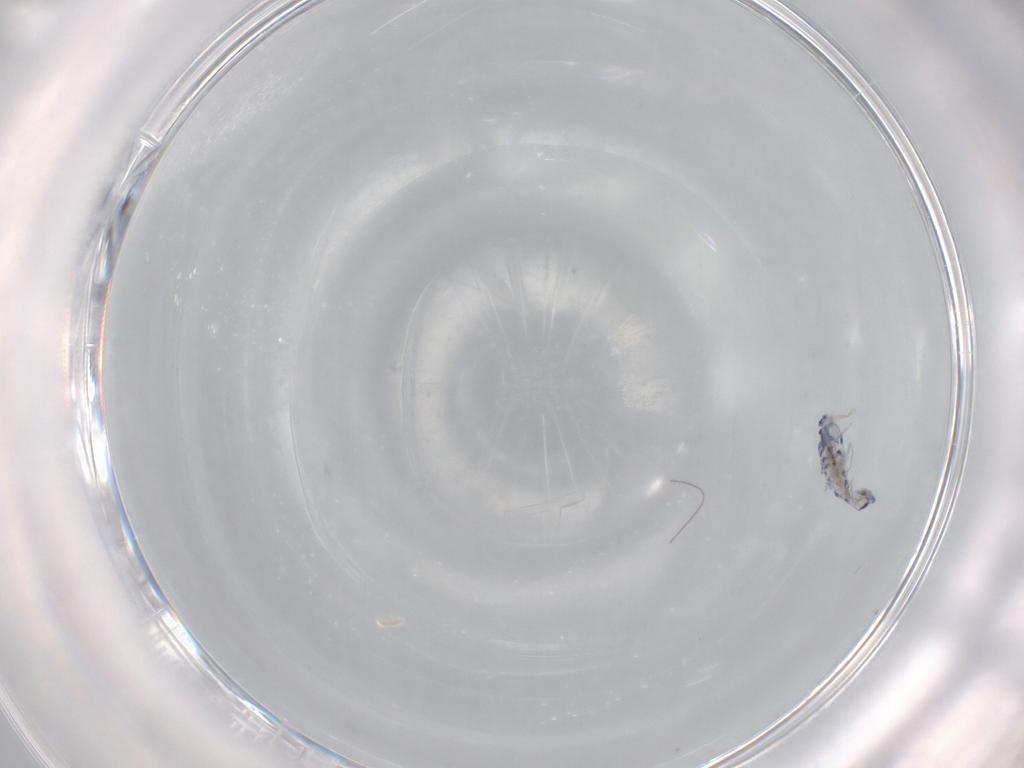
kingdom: Animalia
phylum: Arthropoda
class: Collembola
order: Entomobryomorpha
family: Entomobryidae
